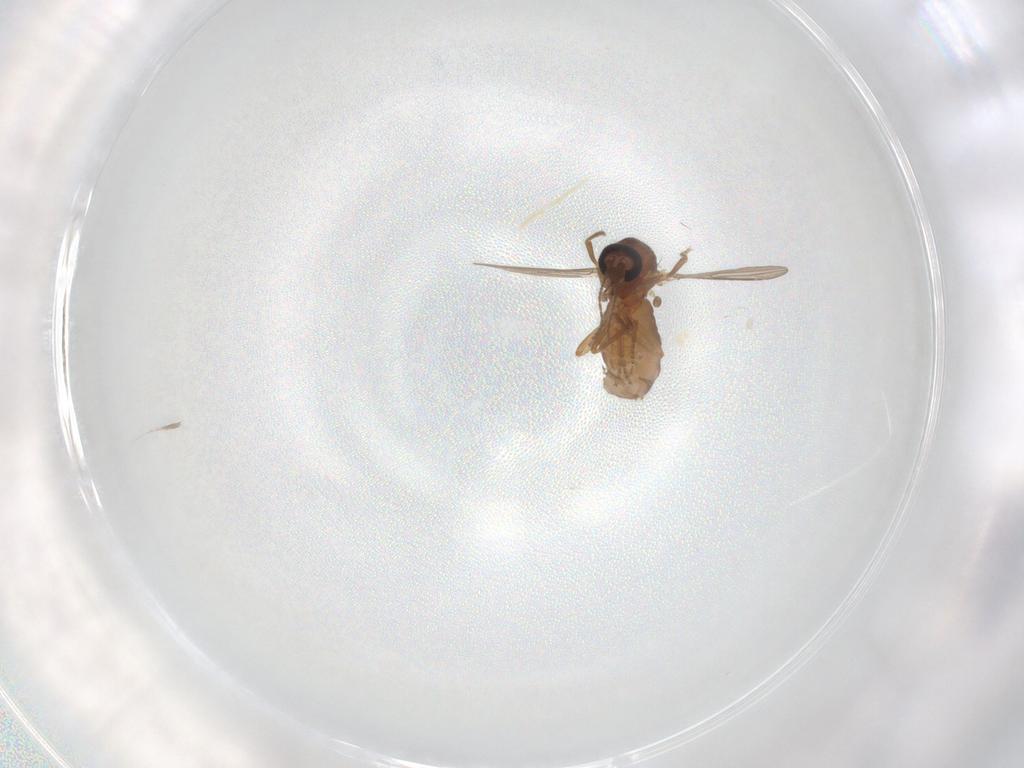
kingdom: Animalia
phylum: Arthropoda
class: Insecta
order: Diptera
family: Ceratopogonidae
